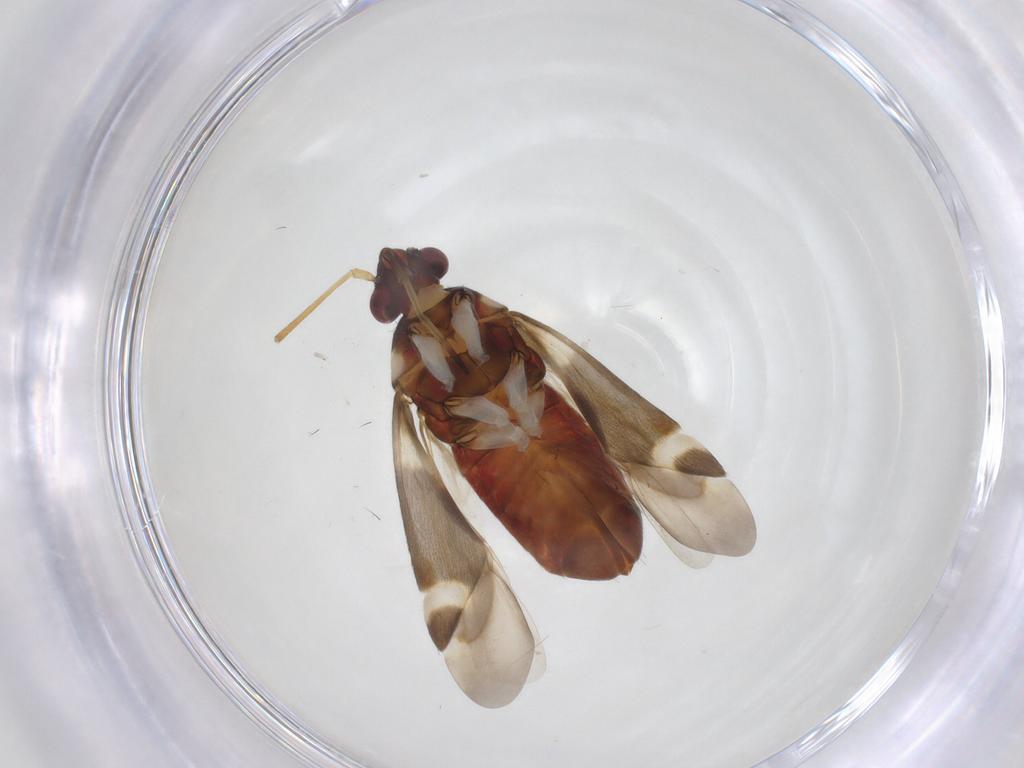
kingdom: Animalia
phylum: Arthropoda
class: Insecta
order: Hemiptera
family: Miridae
